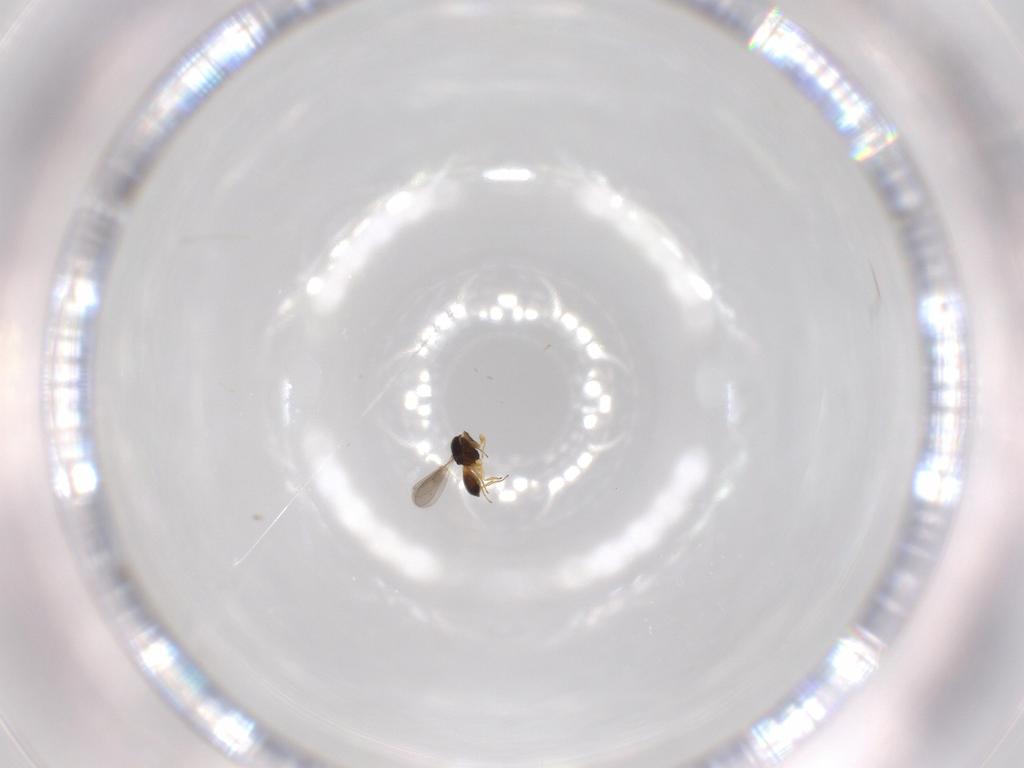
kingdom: Animalia
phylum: Arthropoda
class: Insecta
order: Hymenoptera
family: Scelionidae
